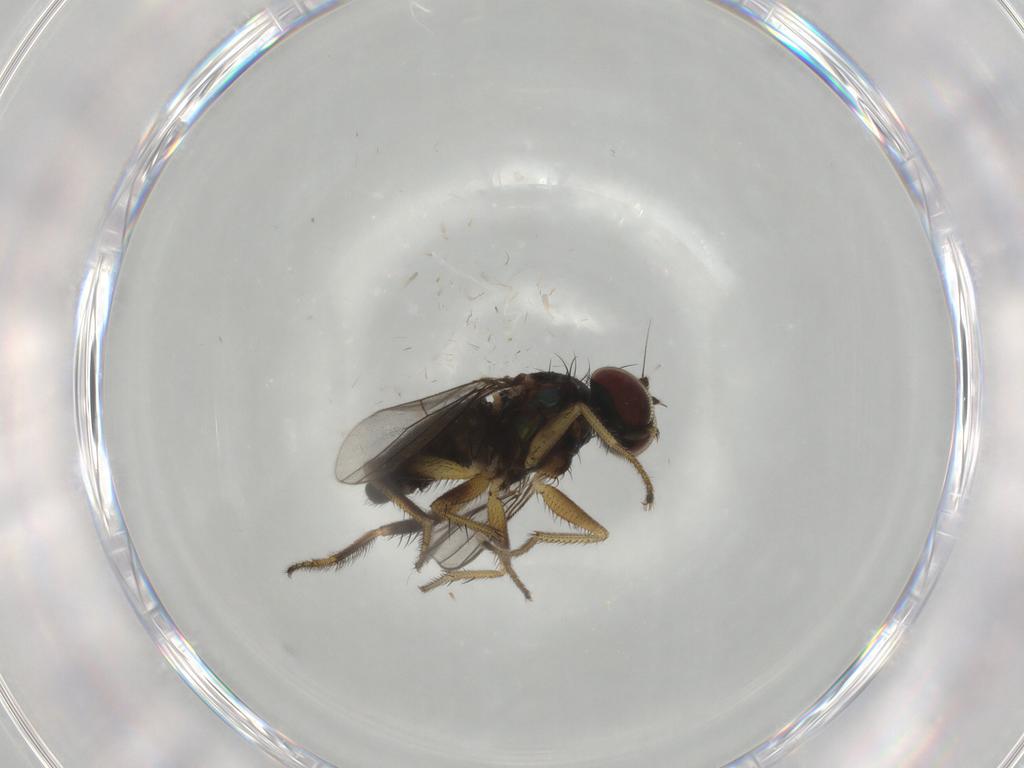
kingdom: Animalia
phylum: Arthropoda
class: Insecta
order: Diptera
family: Dolichopodidae
